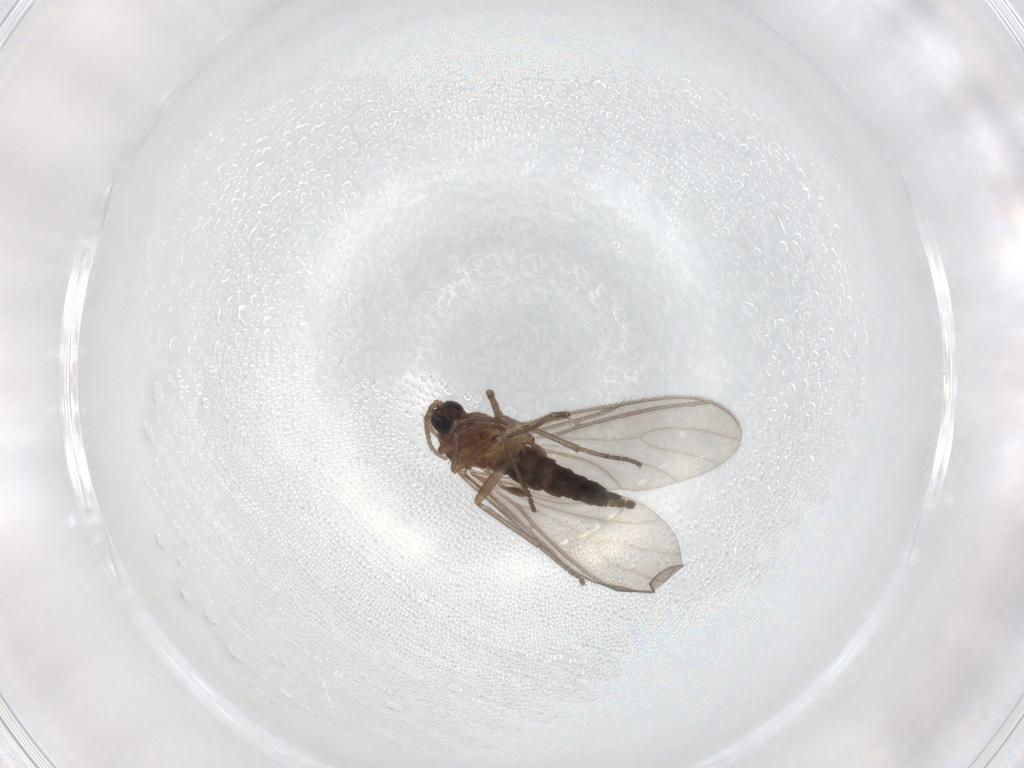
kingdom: Animalia
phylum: Arthropoda
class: Insecta
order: Diptera
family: Sciaridae
